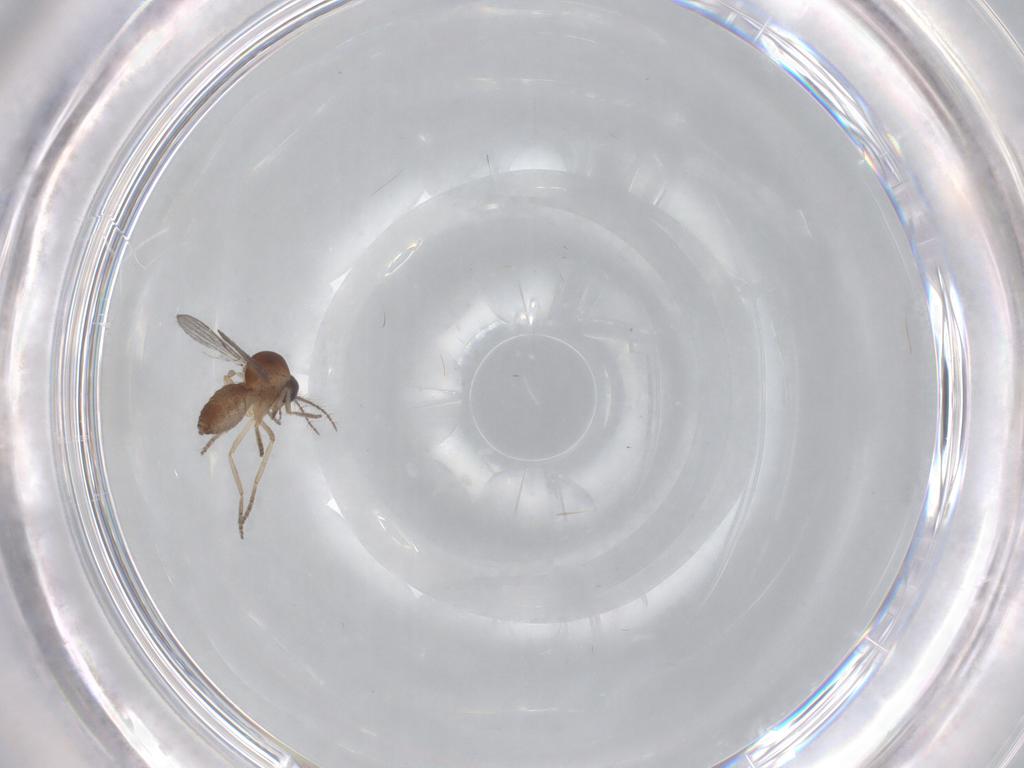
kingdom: Animalia
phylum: Arthropoda
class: Insecta
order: Diptera
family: Ceratopogonidae
